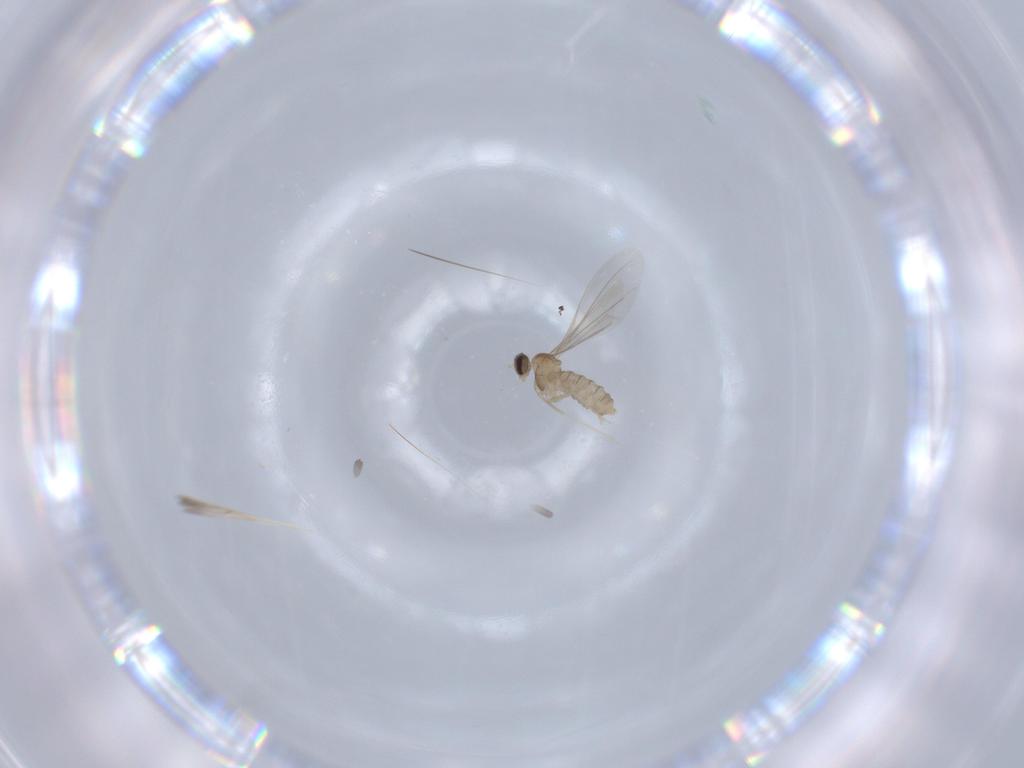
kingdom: Animalia
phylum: Arthropoda
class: Insecta
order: Diptera
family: Cecidomyiidae
